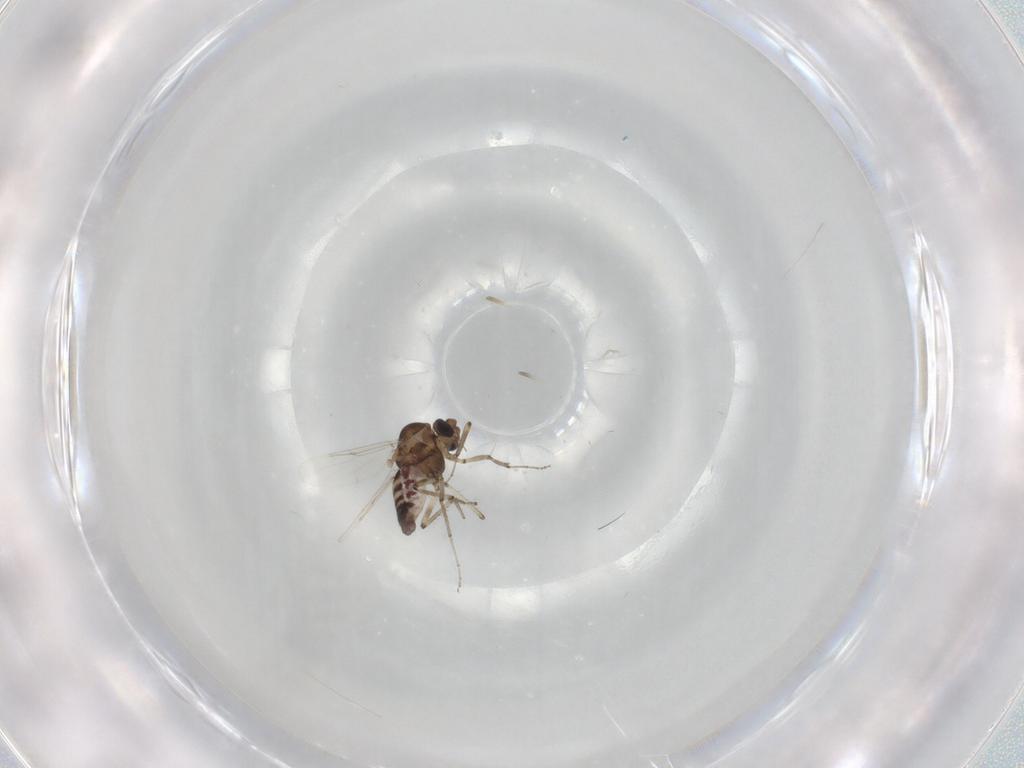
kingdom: Animalia
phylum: Arthropoda
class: Insecta
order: Diptera
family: Ceratopogonidae
